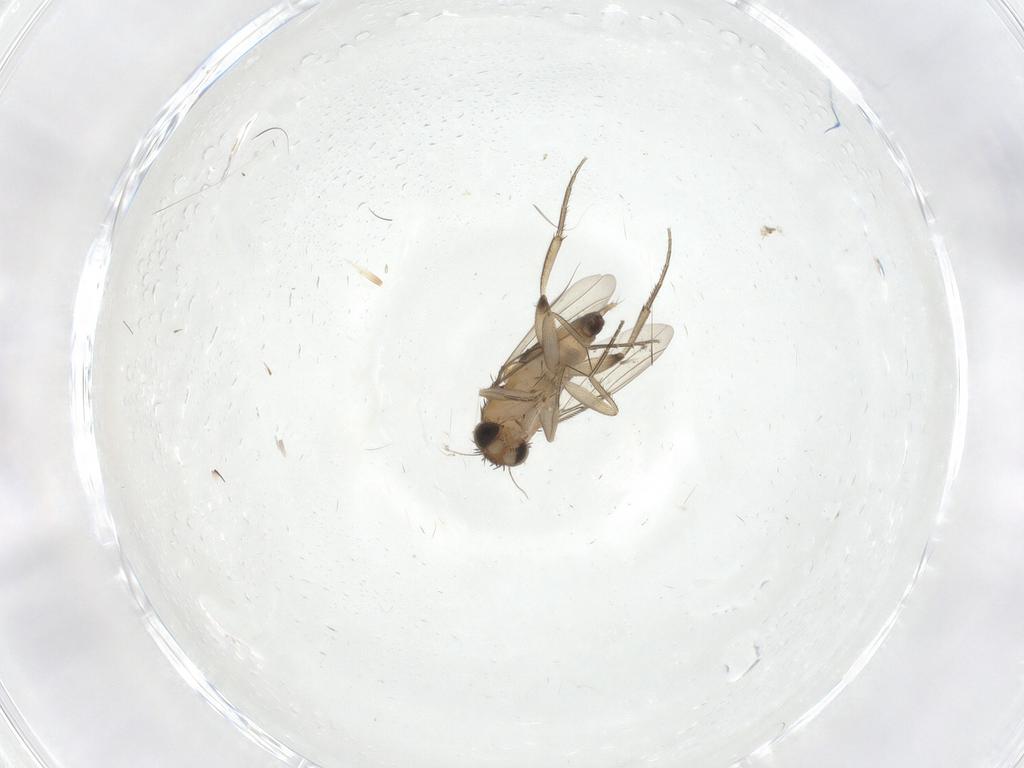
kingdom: Animalia
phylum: Arthropoda
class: Insecta
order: Diptera
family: Phoridae
